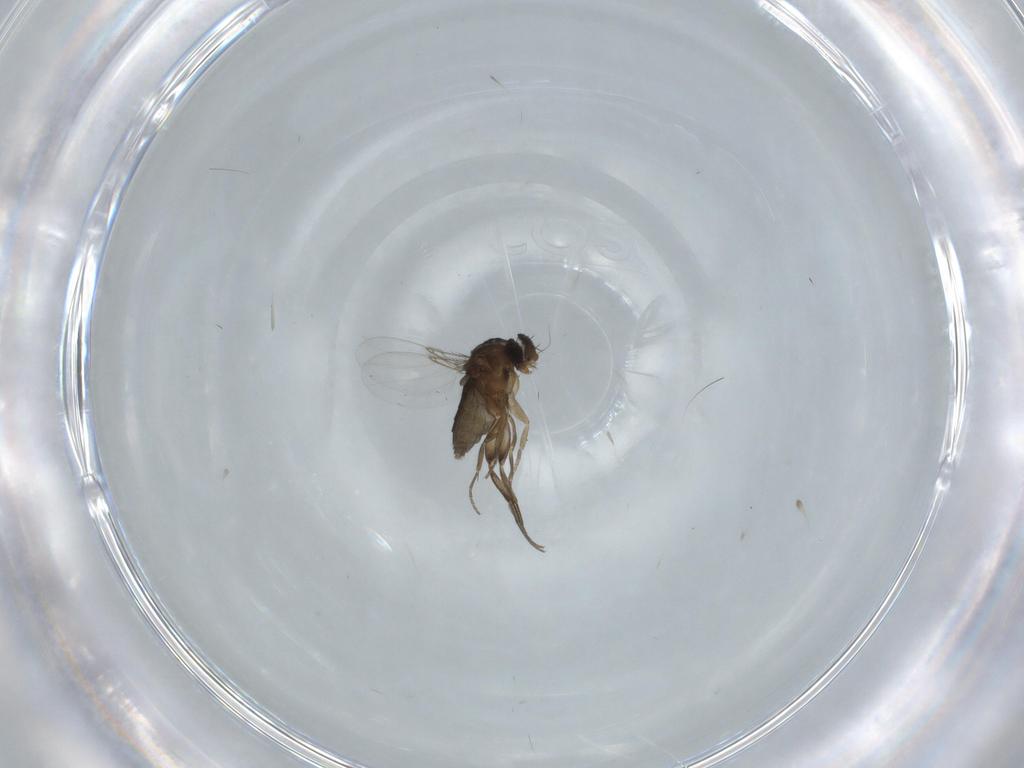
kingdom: Animalia
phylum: Arthropoda
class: Insecta
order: Diptera
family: Phoridae
